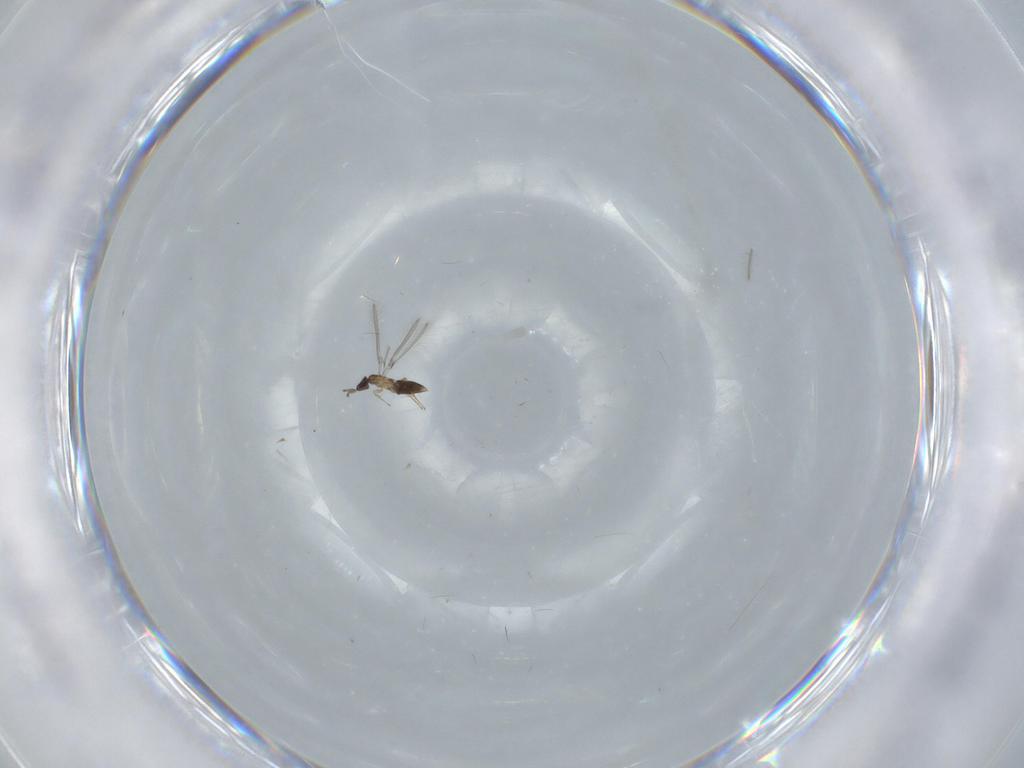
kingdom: Animalia
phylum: Arthropoda
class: Insecta
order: Hymenoptera
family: Mymaridae
